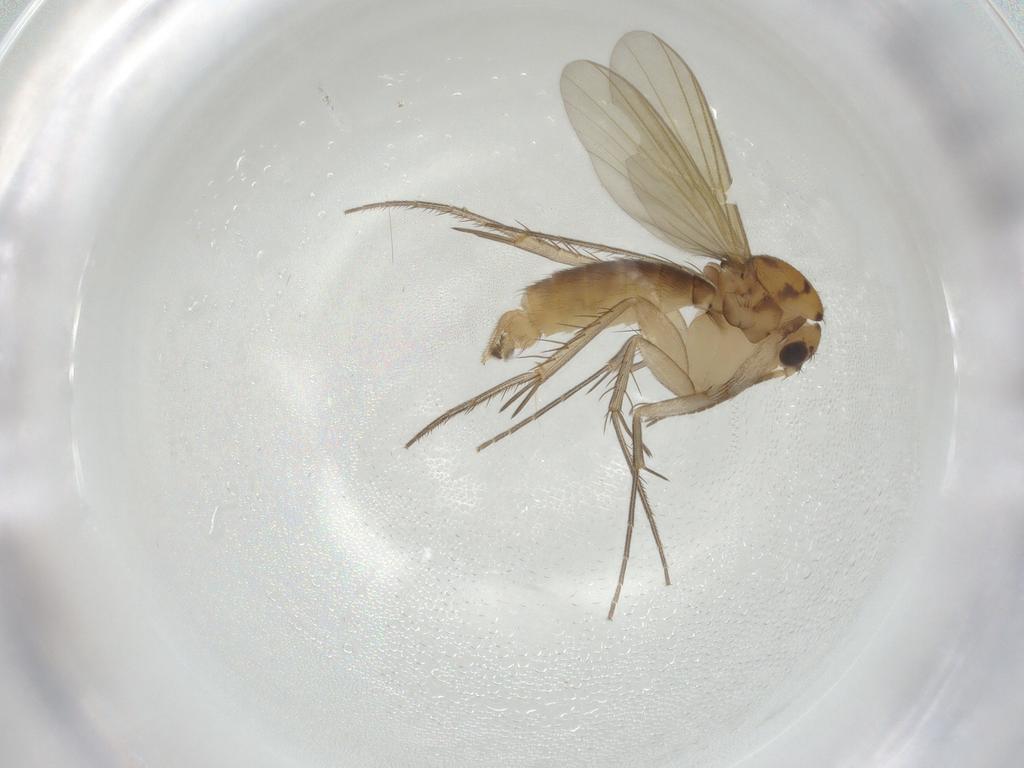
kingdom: Animalia
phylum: Arthropoda
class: Insecta
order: Diptera
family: Mycetophilidae
